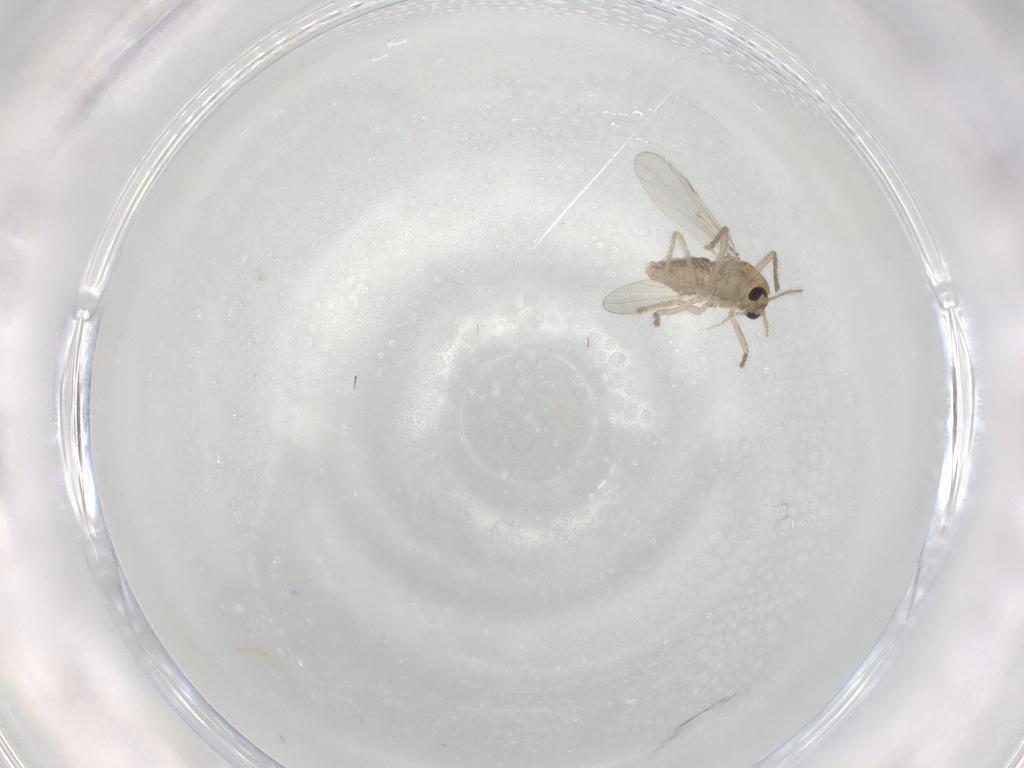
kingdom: Animalia
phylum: Arthropoda
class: Insecta
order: Diptera
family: Chironomidae
